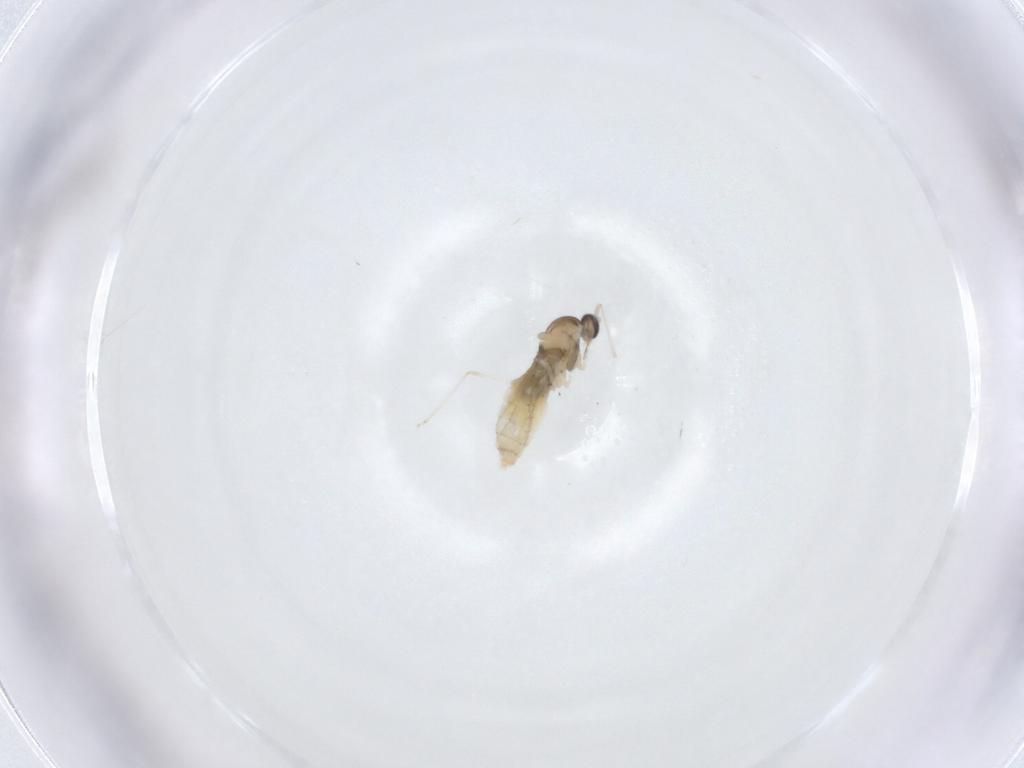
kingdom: Animalia
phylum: Arthropoda
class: Insecta
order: Diptera
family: Cecidomyiidae
